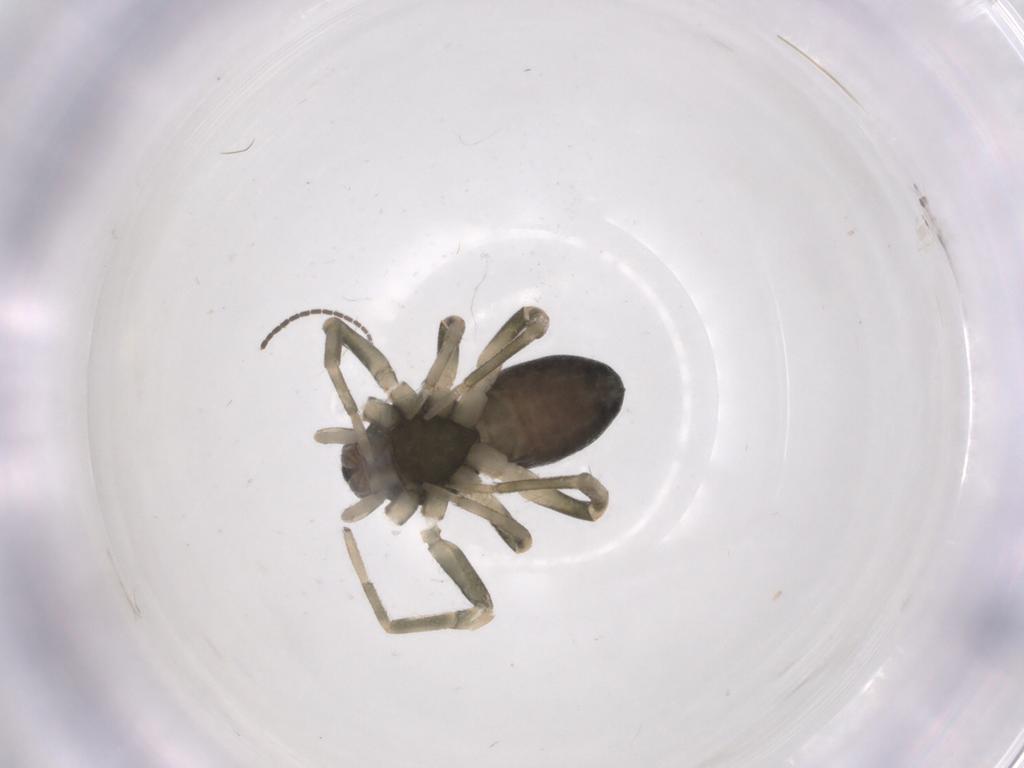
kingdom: Animalia
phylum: Arthropoda
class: Arachnida
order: Araneae
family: Trachelidae
